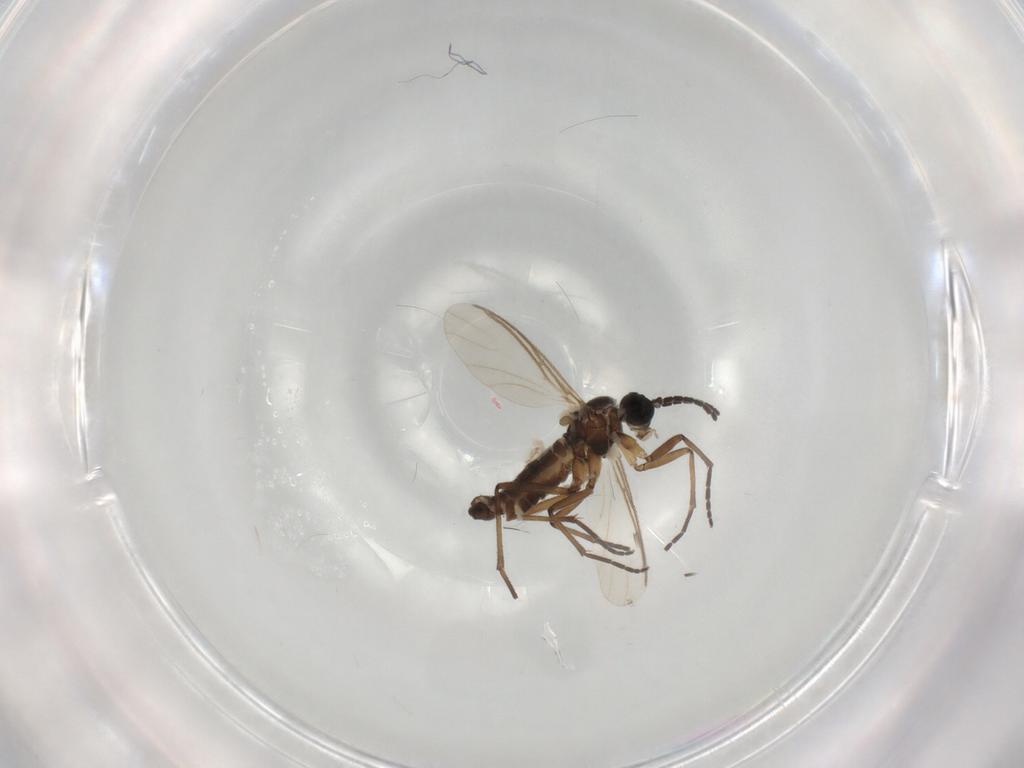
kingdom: Animalia
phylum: Arthropoda
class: Insecta
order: Diptera
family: Sciaridae
